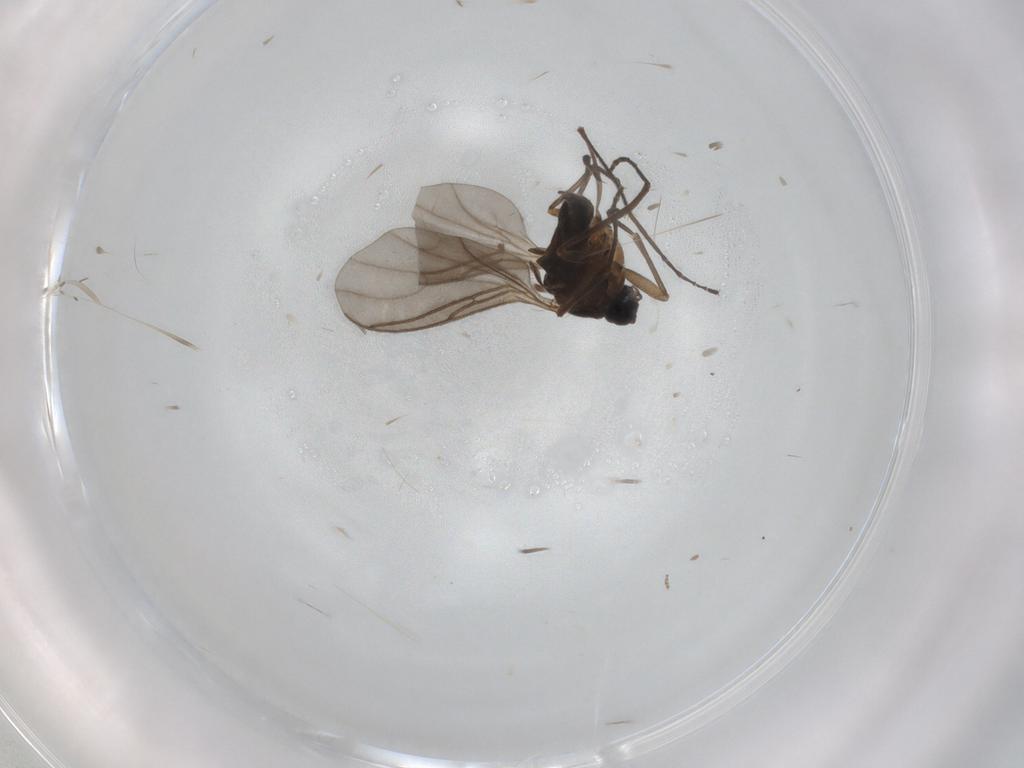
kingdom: Animalia
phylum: Arthropoda
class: Insecta
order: Diptera
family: Sciaridae
